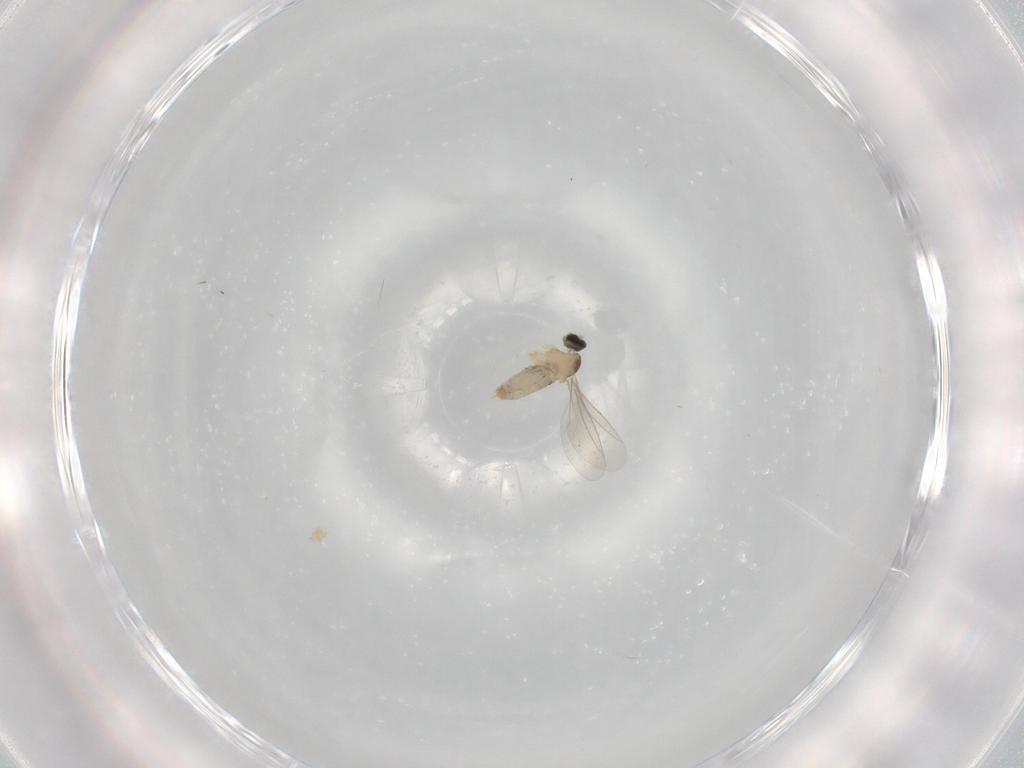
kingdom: Animalia
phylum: Arthropoda
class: Insecta
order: Diptera
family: Cecidomyiidae
